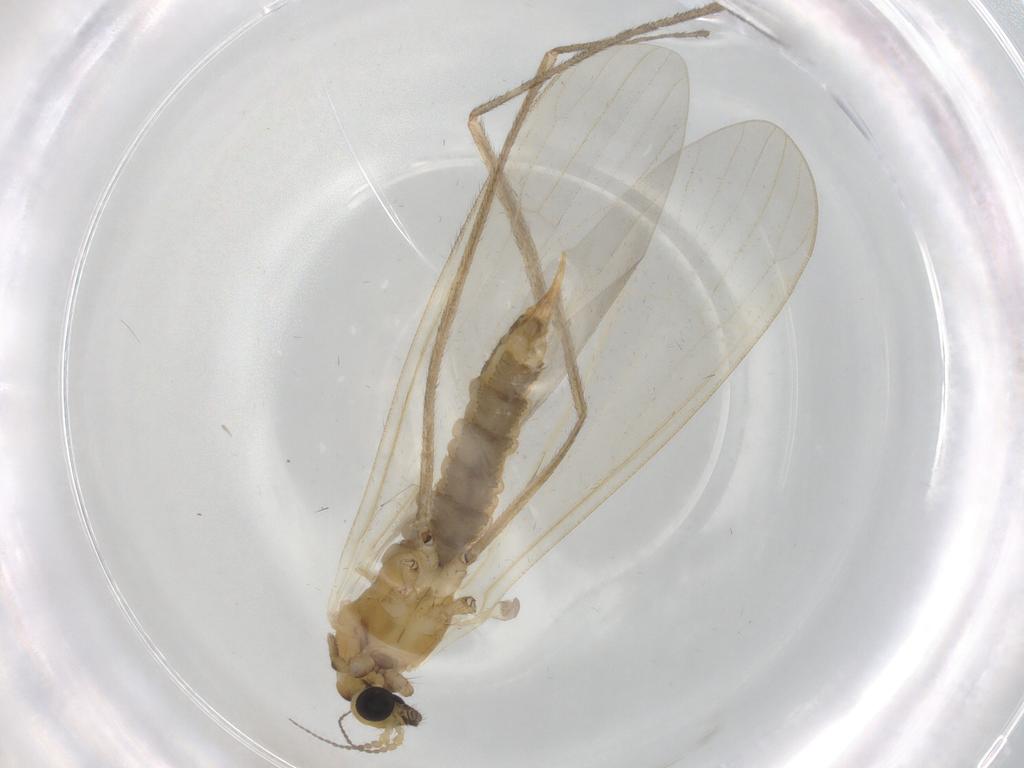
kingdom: Animalia
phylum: Arthropoda
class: Insecta
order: Diptera
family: Limoniidae
